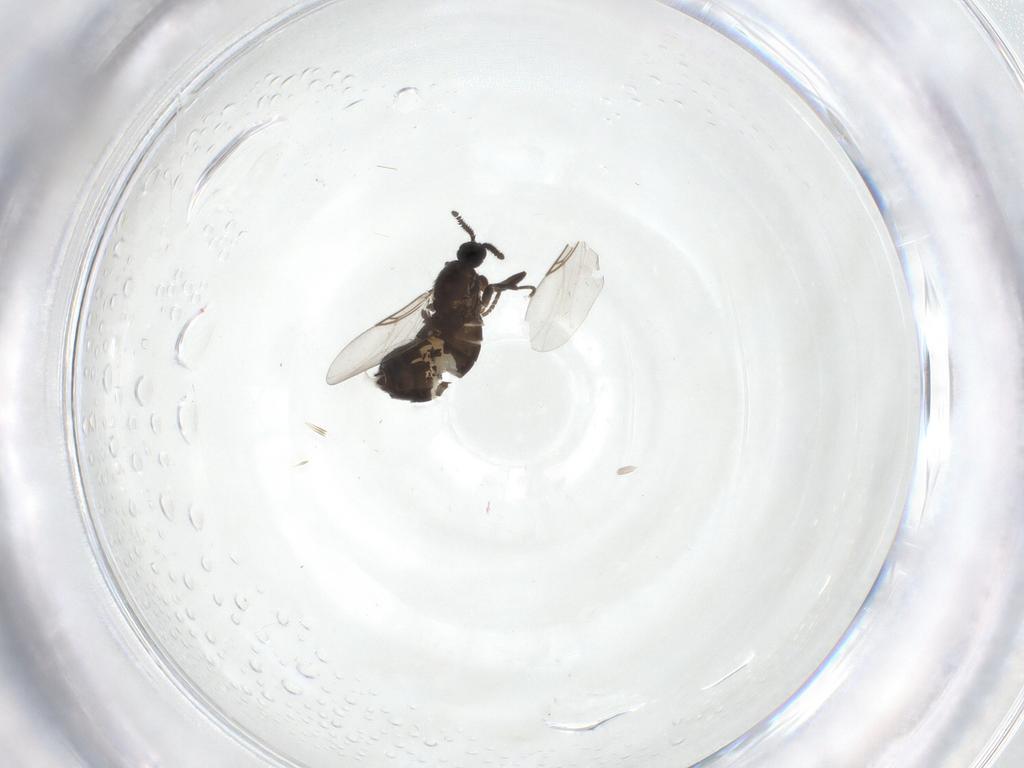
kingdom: Animalia
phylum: Arthropoda
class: Insecta
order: Diptera
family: Scatopsidae
